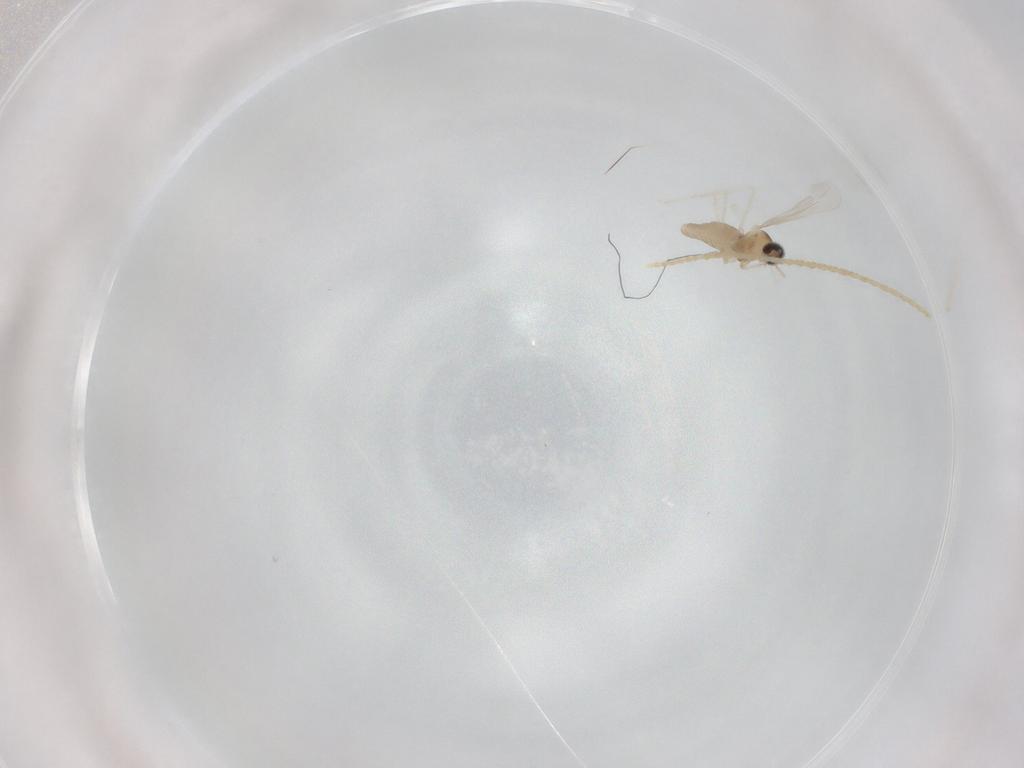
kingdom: Animalia
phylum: Arthropoda
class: Insecta
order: Diptera
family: Cecidomyiidae
